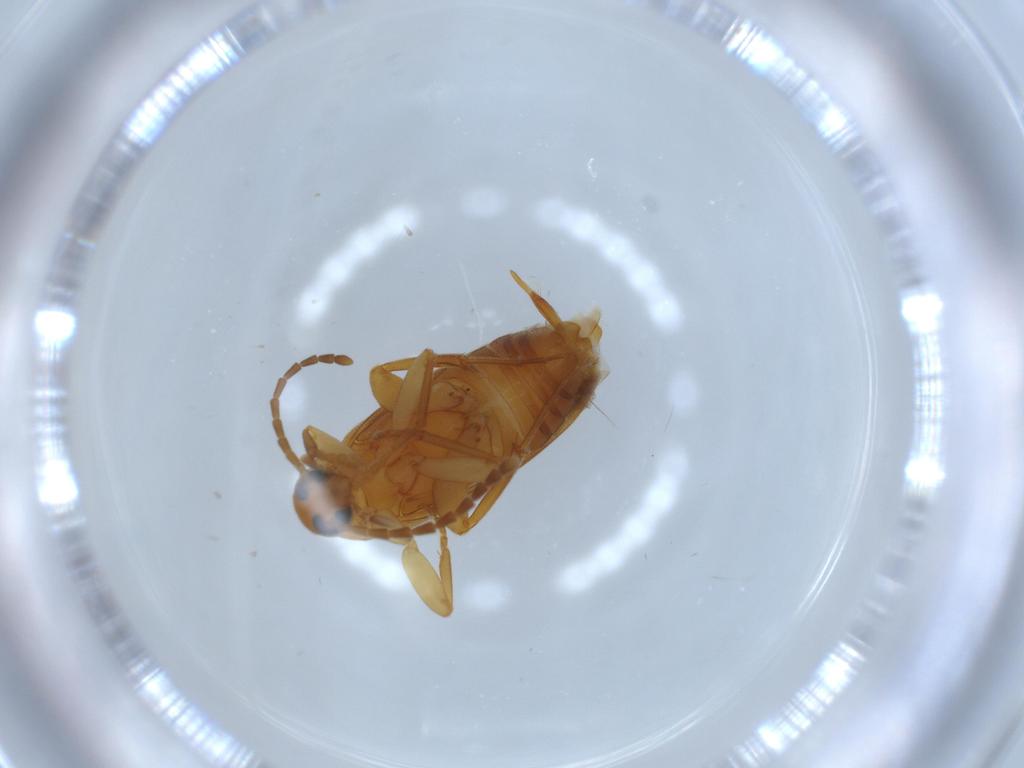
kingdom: Animalia
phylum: Arthropoda
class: Insecta
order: Coleoptera
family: Scraptiidae
